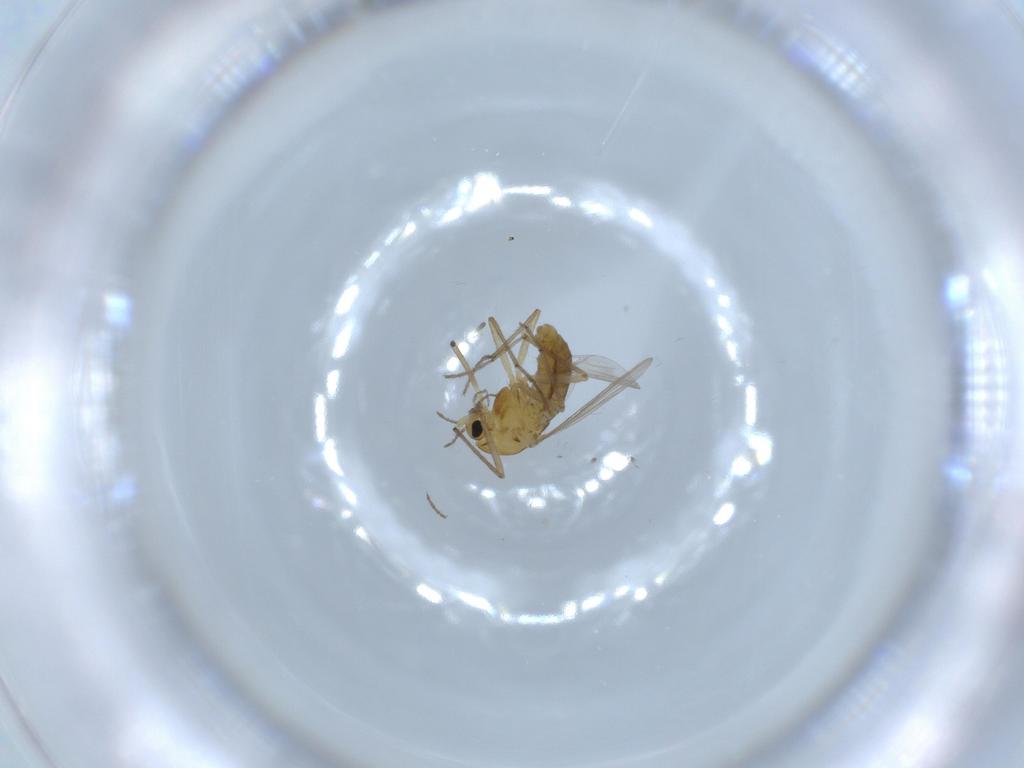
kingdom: Animalia
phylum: Arthropoda
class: Insecta
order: Diptera
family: Chironomidae
